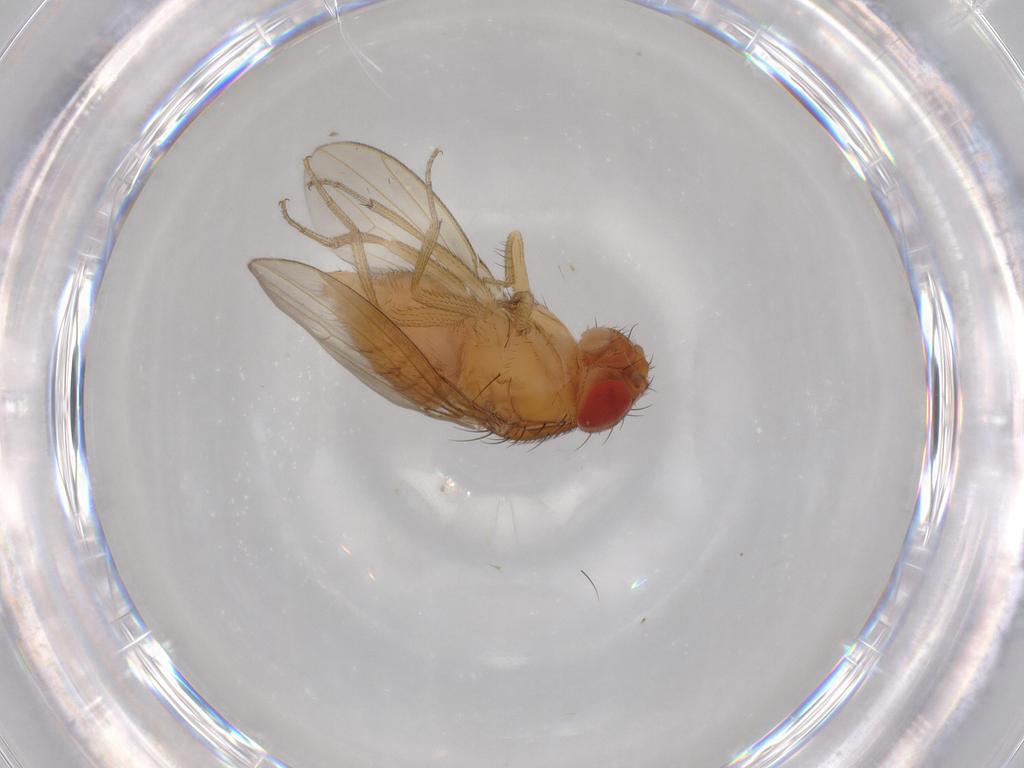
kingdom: Animalia
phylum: Arthropoda
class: Insecta
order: Diptera
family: Drosophilidae
